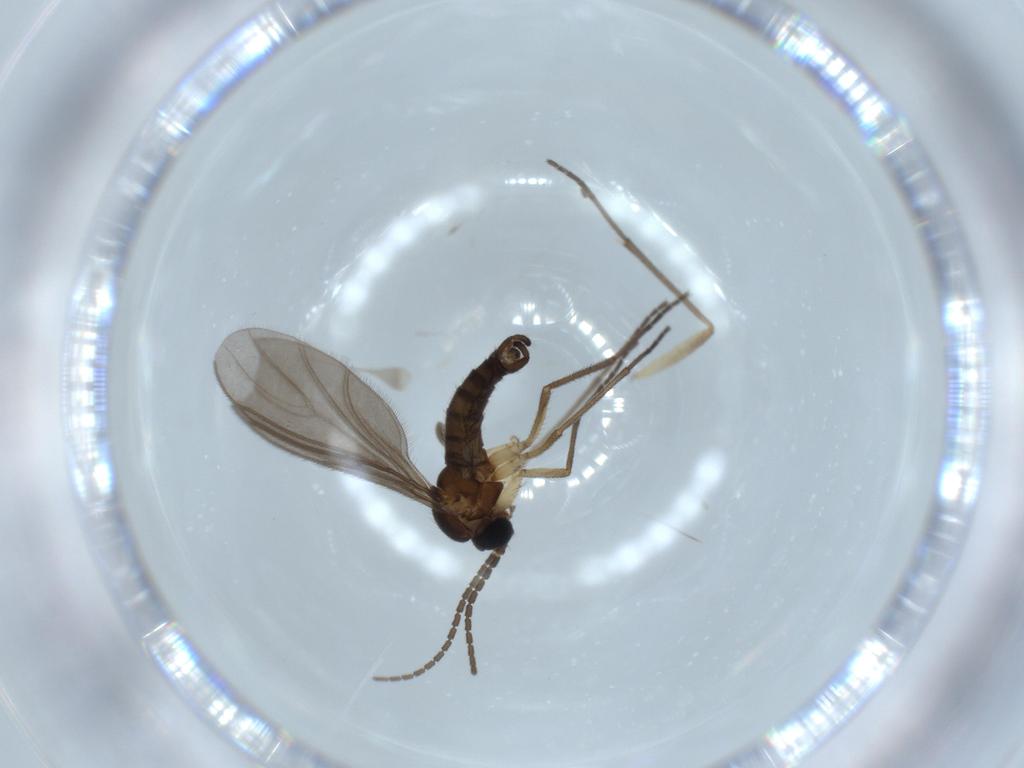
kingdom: Animalia
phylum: Arthropoda
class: Insecta
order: Diptera
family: Sciaridae
